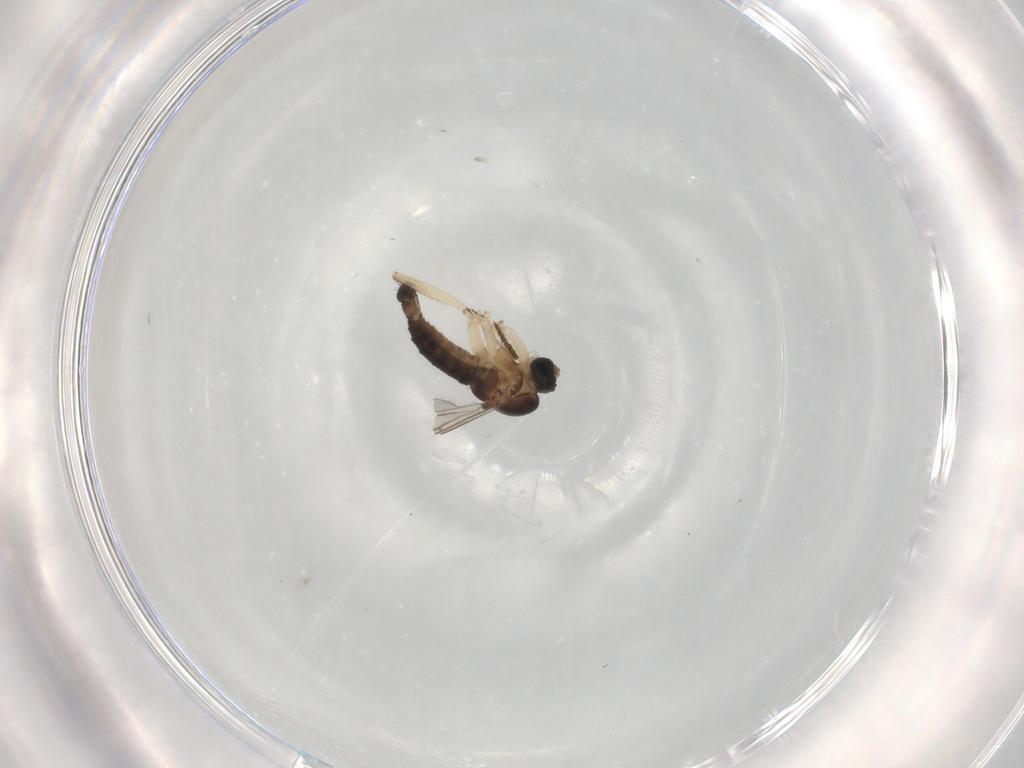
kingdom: Animalia
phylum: Arthropoda
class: Insecta
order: Diptera
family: Sciaridae
